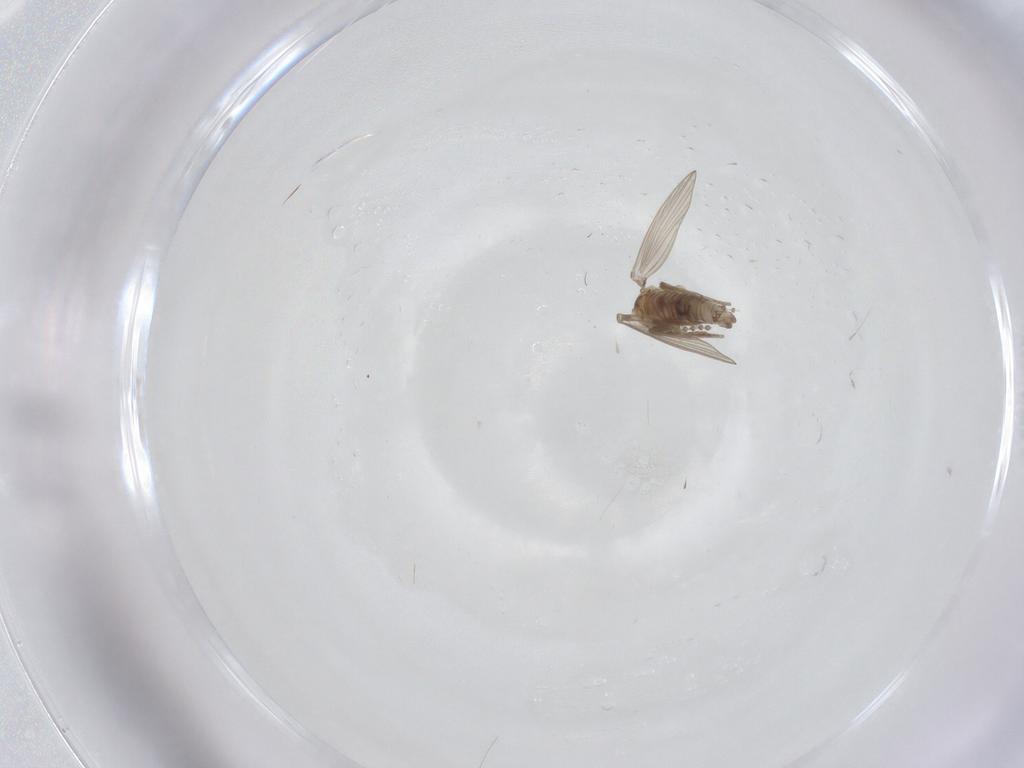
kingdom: Animalia
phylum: Arthropoda
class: Insecta
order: Diptera
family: Psychodidae
